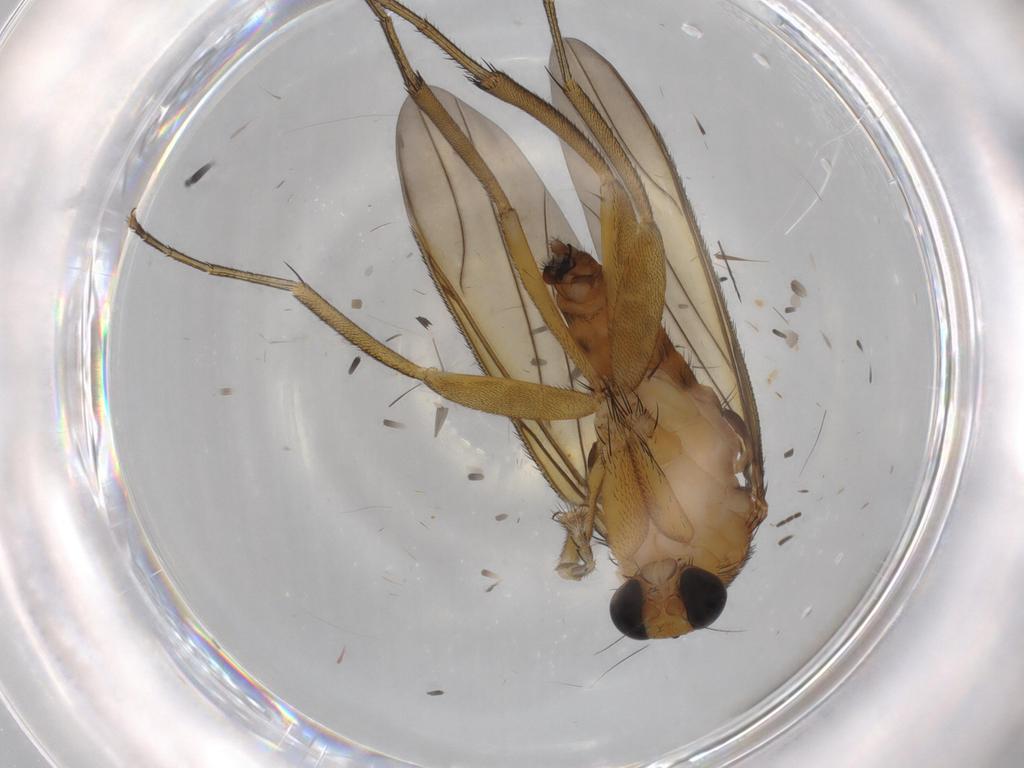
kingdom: Animalia
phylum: Arthropoda
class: Insecta
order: Diptera
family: Phoridae
